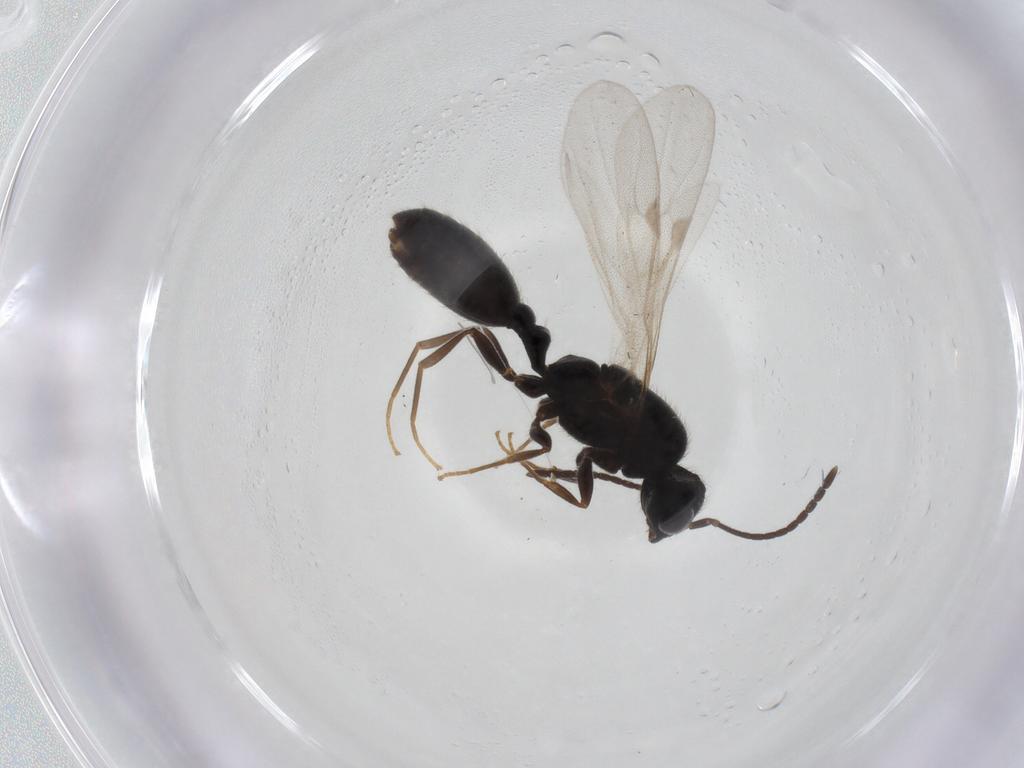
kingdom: Animalia
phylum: Arthropoda
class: Insecta
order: Hymenoptera
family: Formicidae
